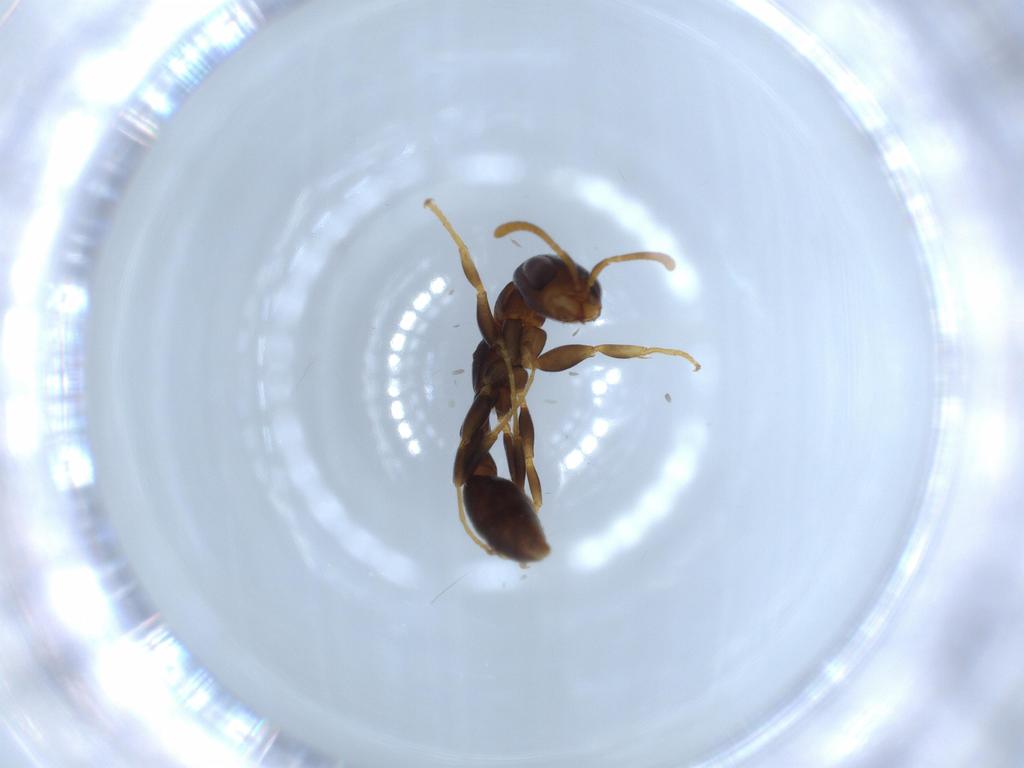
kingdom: Animalia
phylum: Arthropoda
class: Insecta
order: Hymenoptera
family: Formicidae
